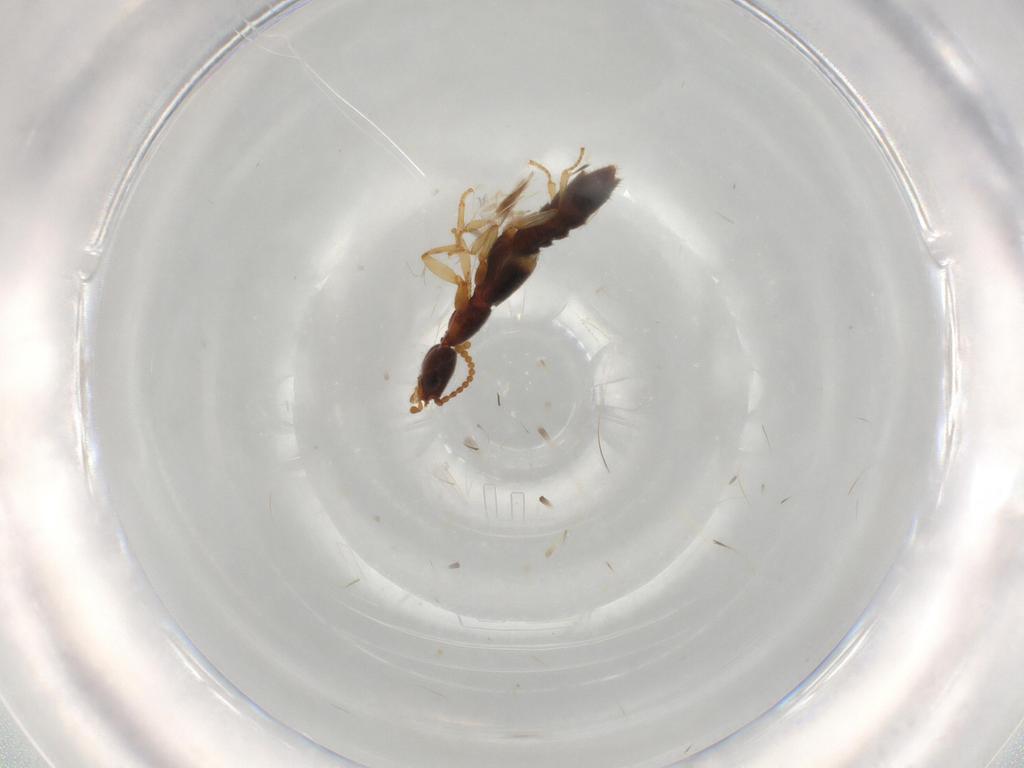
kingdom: Animalia
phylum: Arthropoda
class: Insecta
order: Coleoptera
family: Staphylinidae
